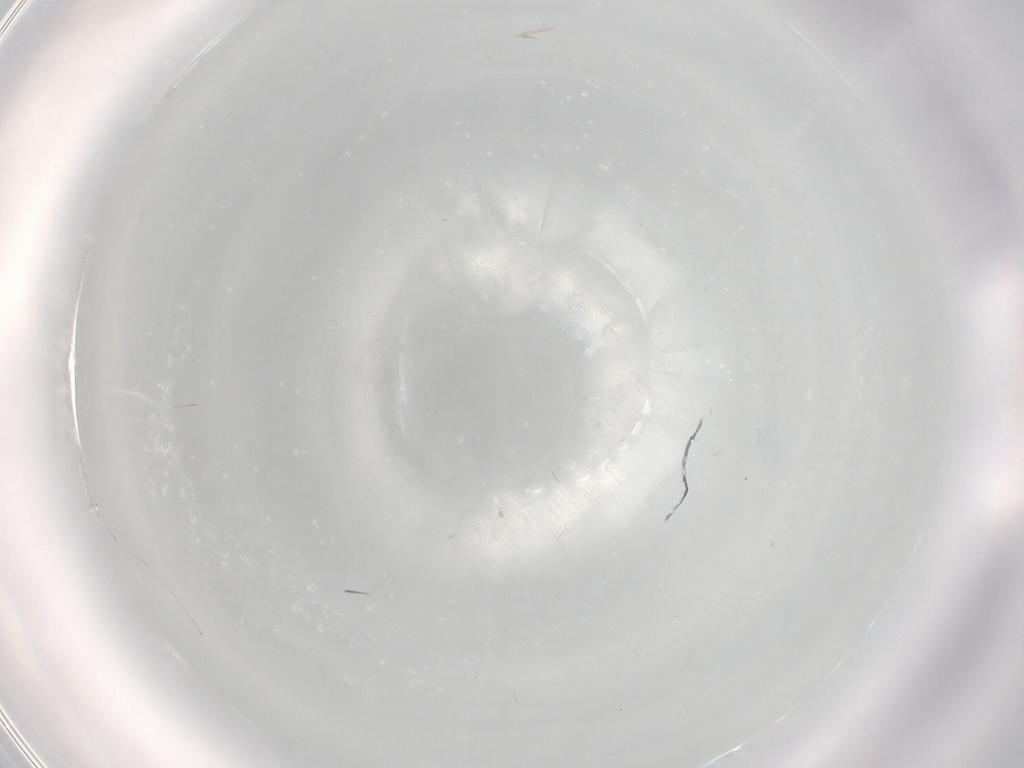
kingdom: Animalia
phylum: Arthropoda
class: Insecta
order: Diptera
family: Cecidomyiidae
